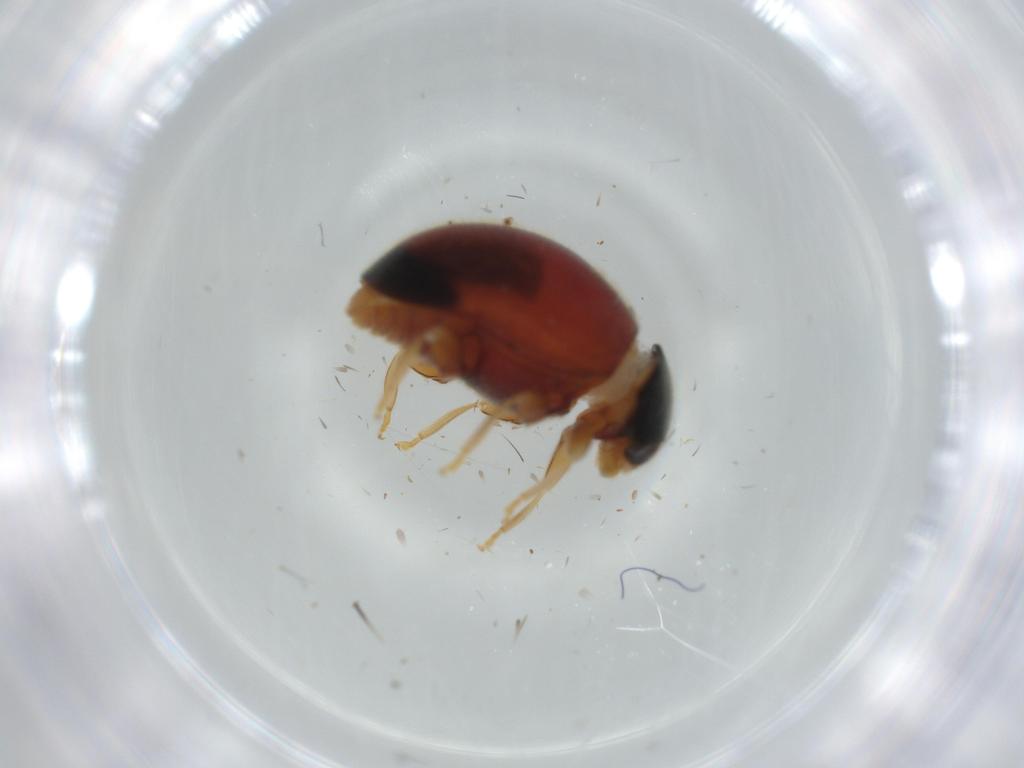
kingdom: Animalia
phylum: Arthropoda
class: Insecta
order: Coleoptera
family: Coccinellidae
